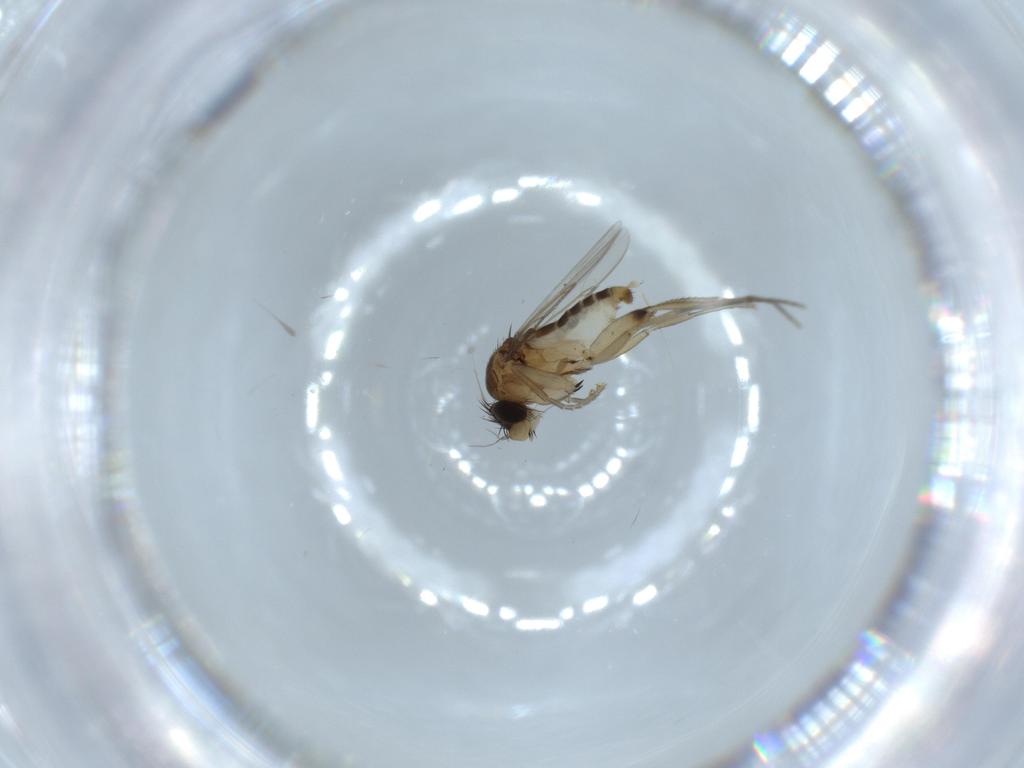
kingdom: Animalia
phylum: Arthropoda
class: Insecta
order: Diptera
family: Phoridae
